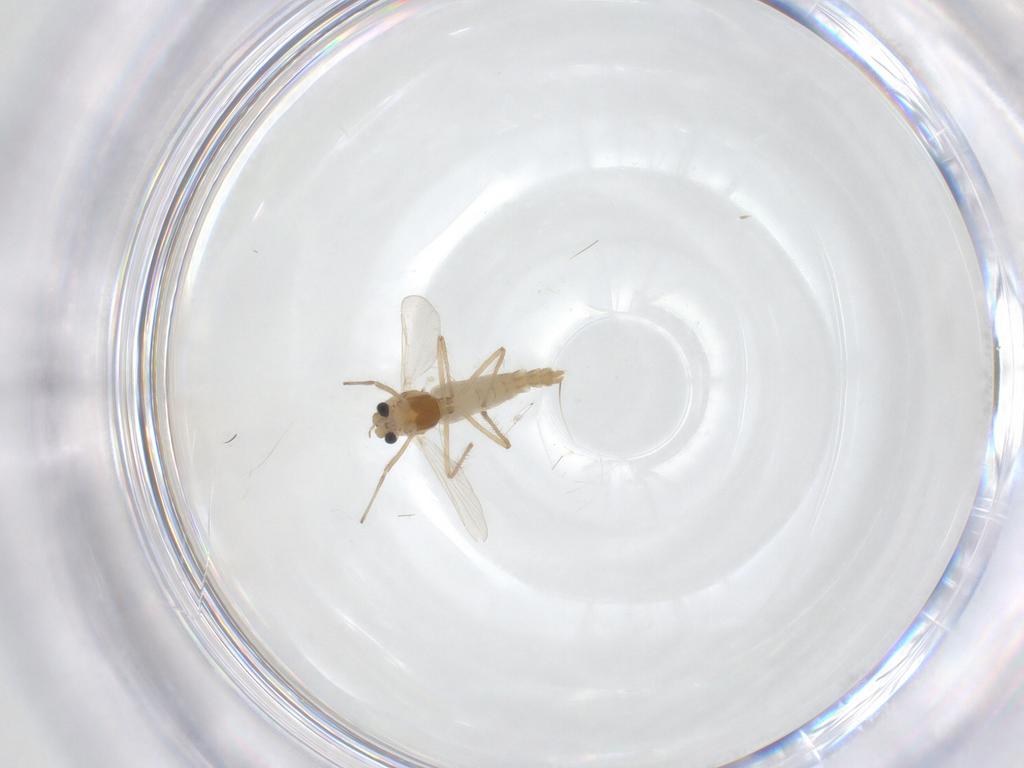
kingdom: Animalia
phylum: Arthropoda
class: Insecta
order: Diptera
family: Chironomidae
